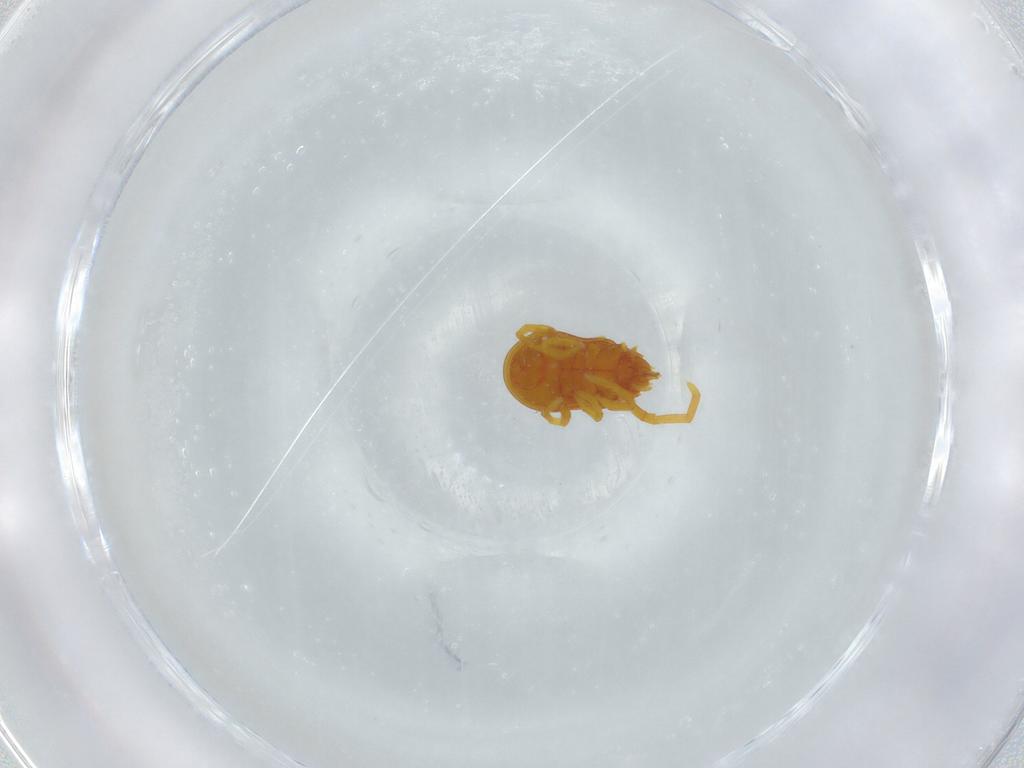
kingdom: Animalia
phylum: Arthropoda
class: Arachnida
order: Trombidiformes
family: Labidostommidae
